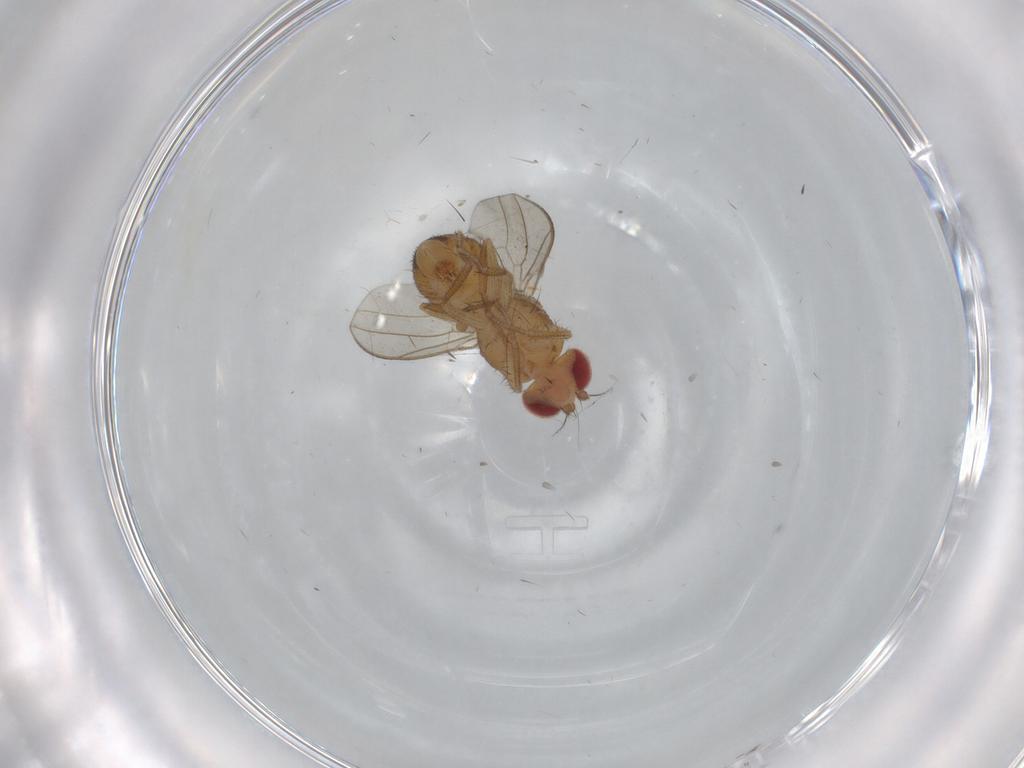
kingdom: Animalia
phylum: Arthropoda
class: Insecta
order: Diptera
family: Drosophilidae
